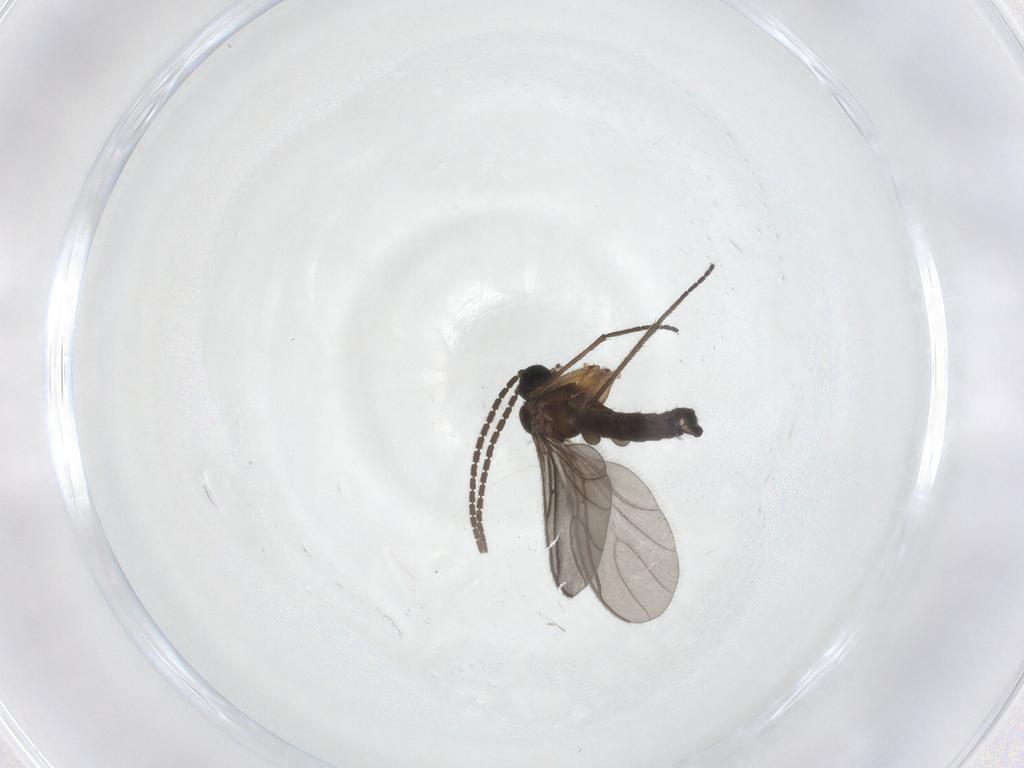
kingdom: Animalia
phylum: Arthropoda
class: Insecta
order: Diptera
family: Sciaridae
